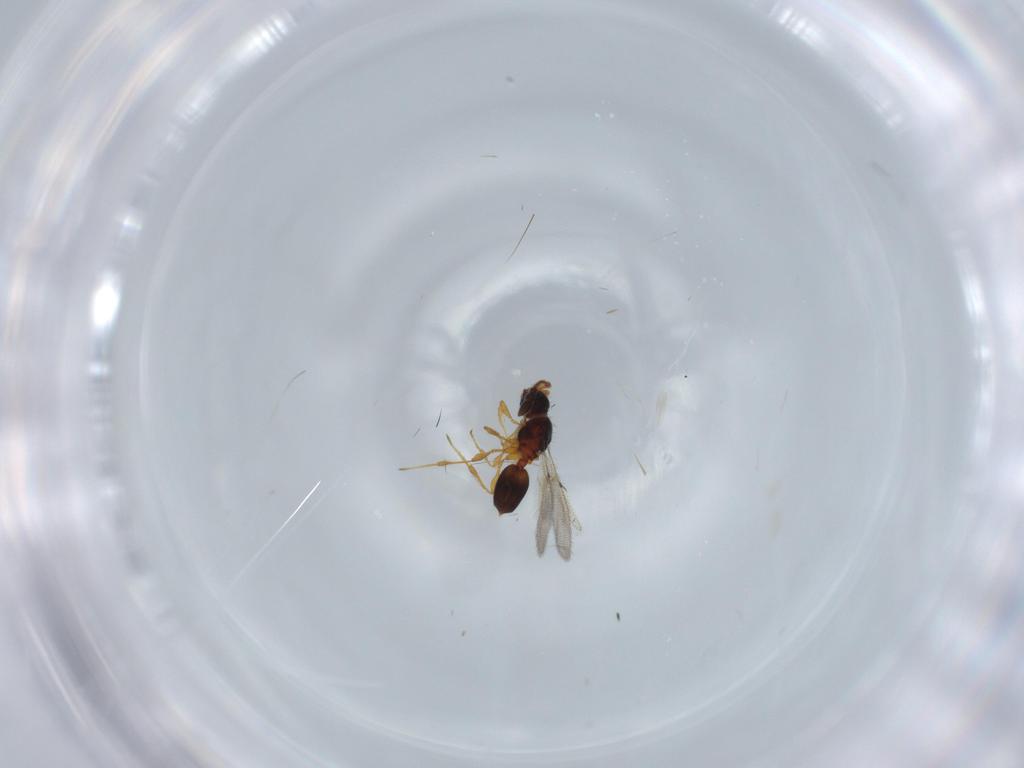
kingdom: Animalia
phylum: Arthropoda
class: Insecta
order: Hymenoptera
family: Diapriidae
